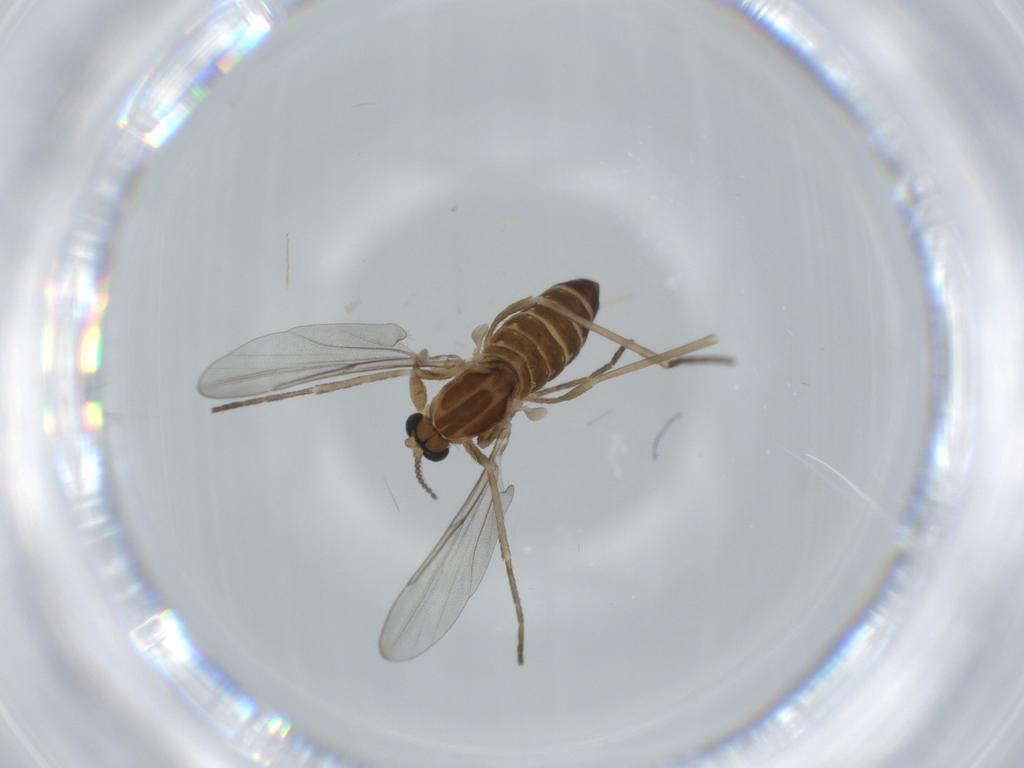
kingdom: Animalia
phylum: Arthropoda
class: Insecta
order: Diptera
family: Cecidomyiidae
